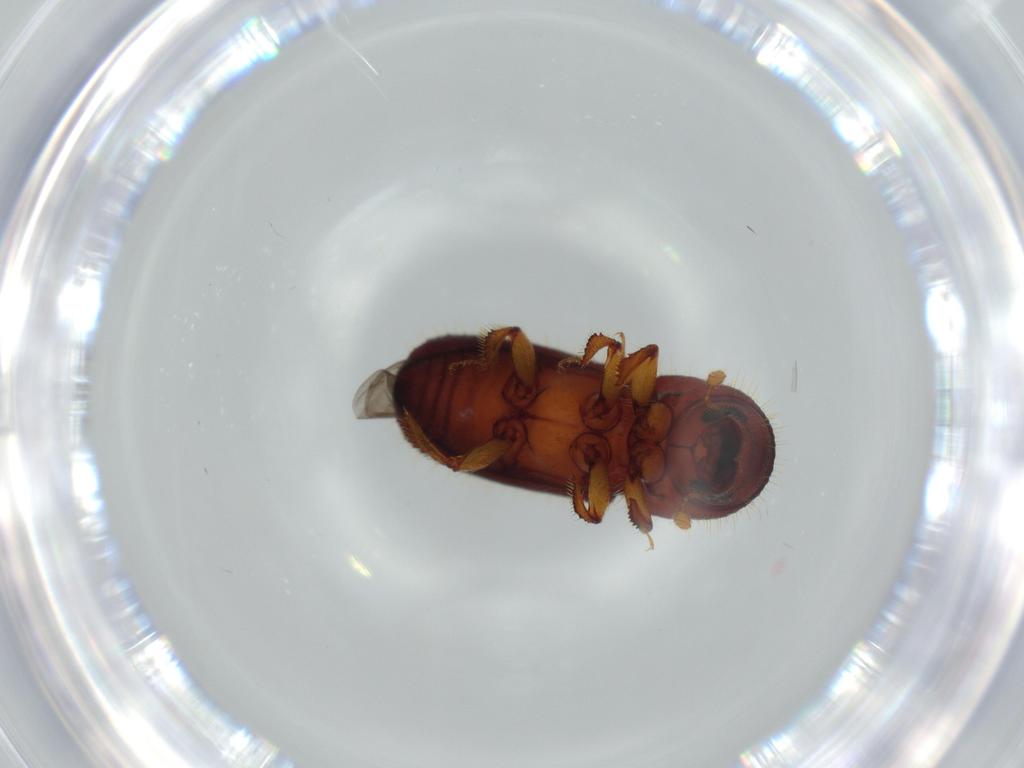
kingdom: Animalia
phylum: Arthropoda
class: Insecta
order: Coleoptera
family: Curculionidae
